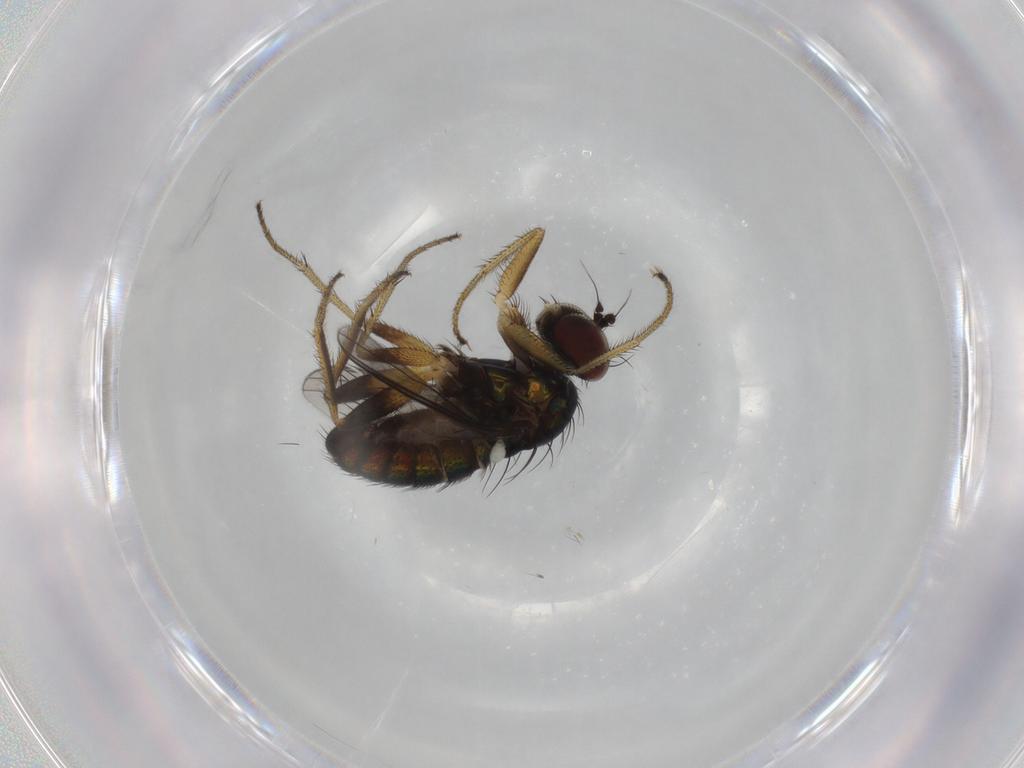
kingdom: Animalia
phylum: Arthropoda
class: Insecta
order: Diptera
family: Dolichopodidae
